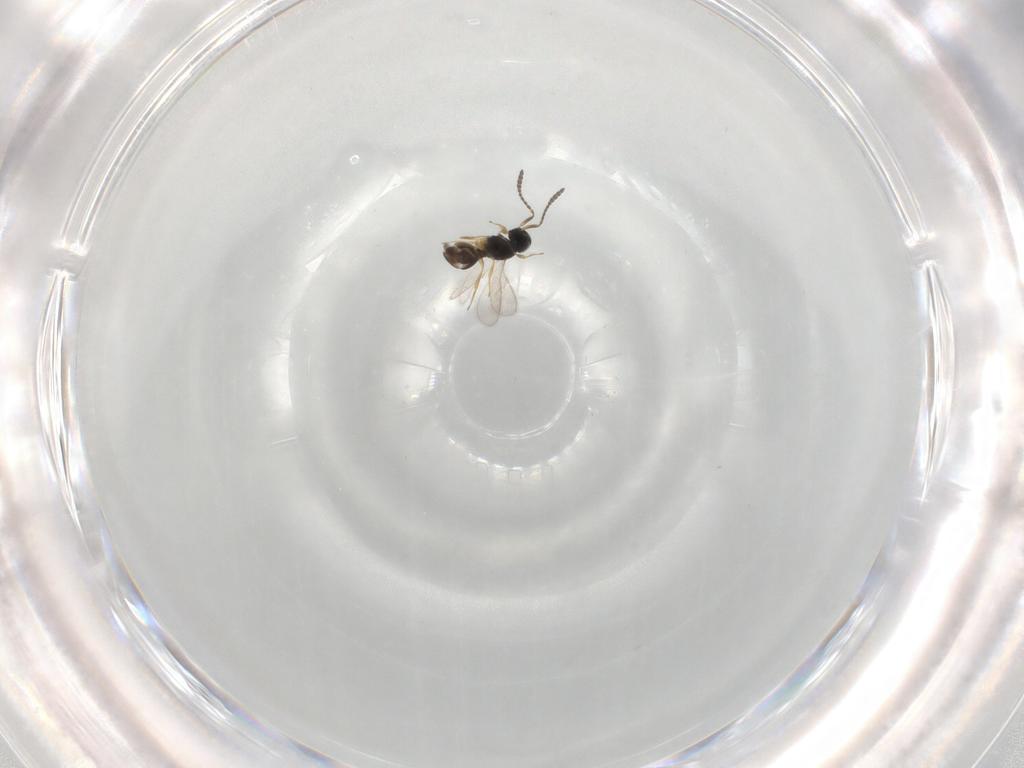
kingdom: Animalia
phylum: Arthropoda
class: Insecta
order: Hymenoptera
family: Scelionidae
